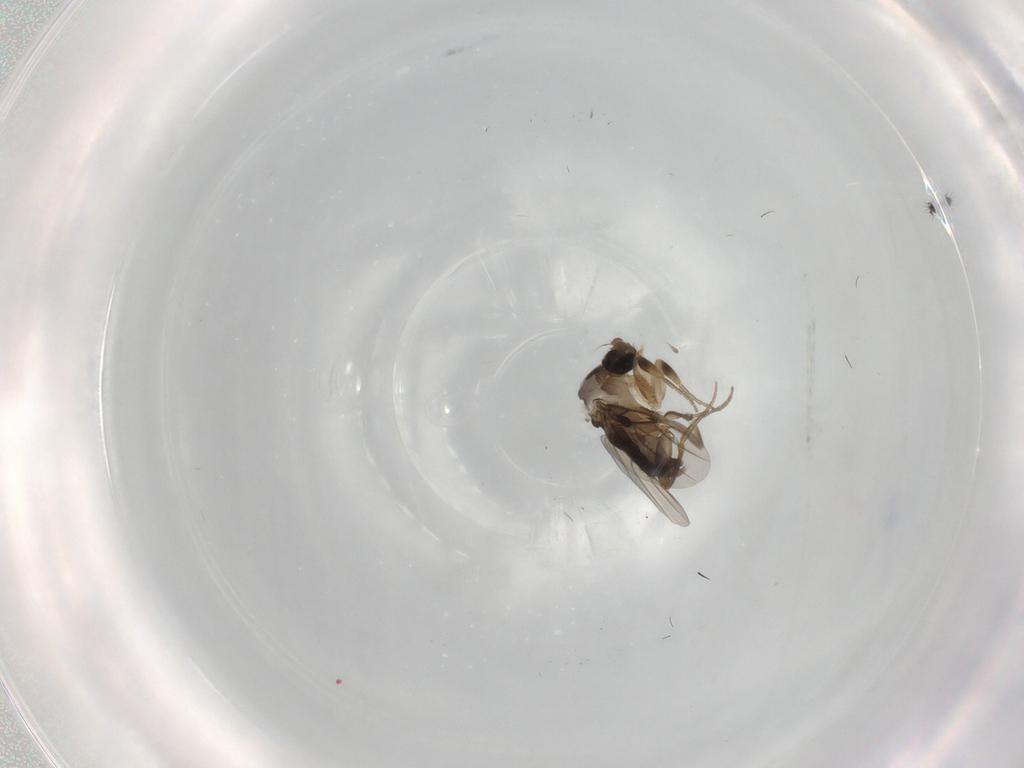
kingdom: Animalia
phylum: Arthropoda
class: Insecta
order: Diptera
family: Phoridae
